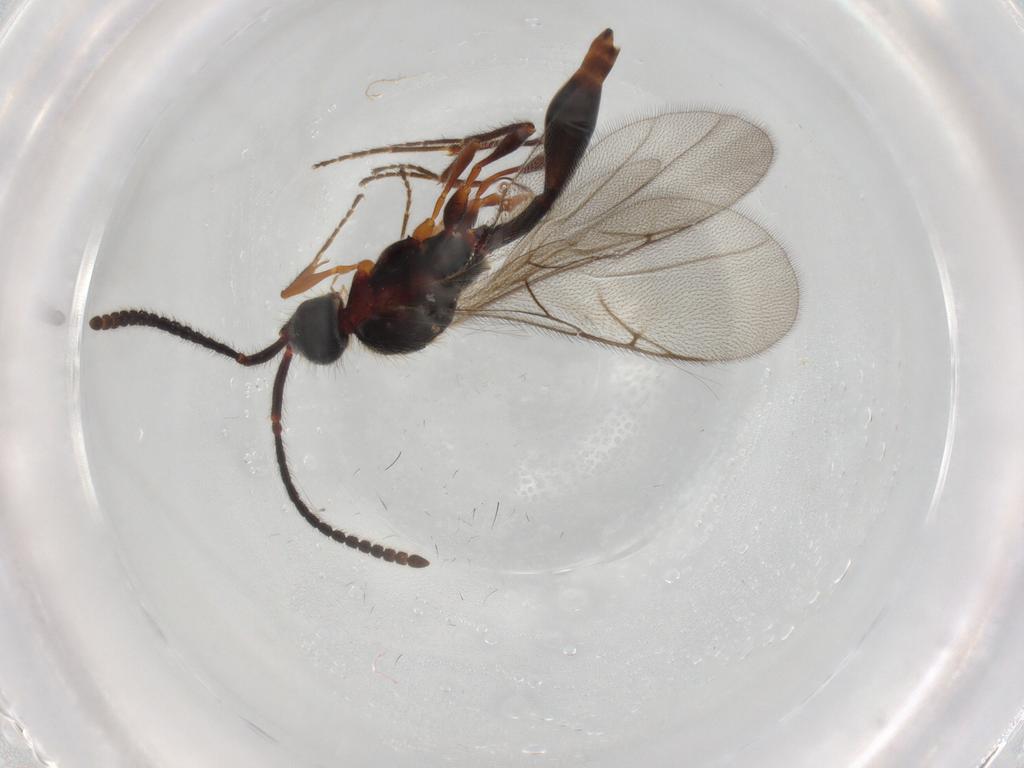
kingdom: Animalia
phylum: Arthropoda
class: Insecta
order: Hymenoptera
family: Diapriidae
